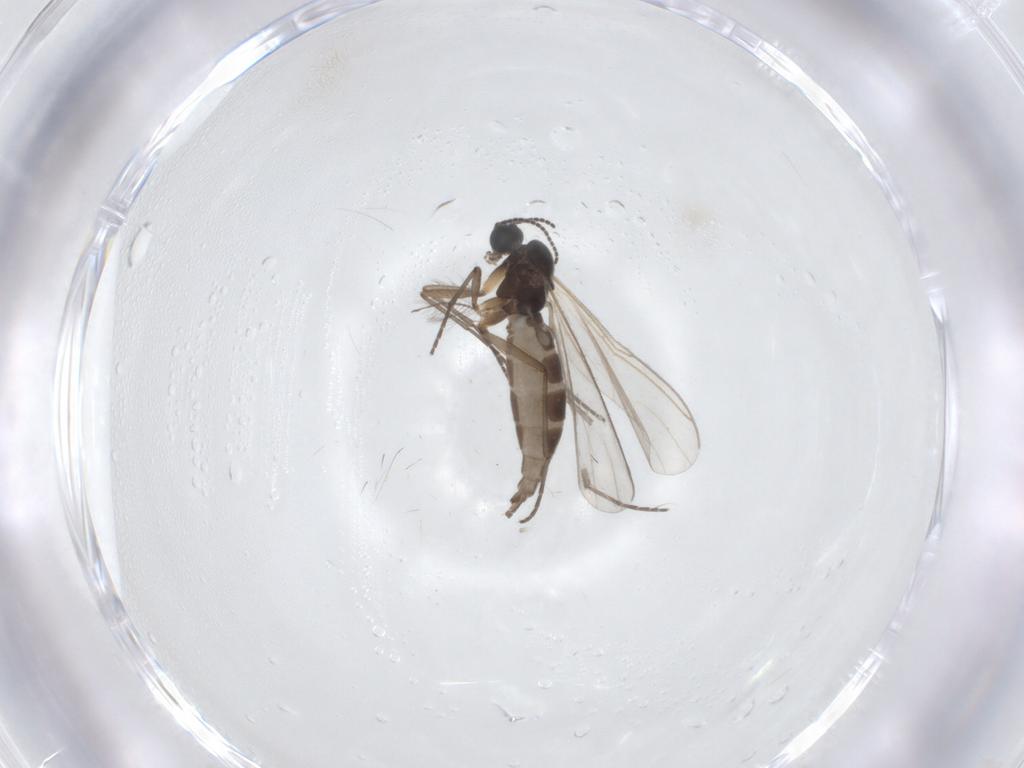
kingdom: Animalia
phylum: Arthropoda
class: Insecta
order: Diptera
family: Sciaridae
